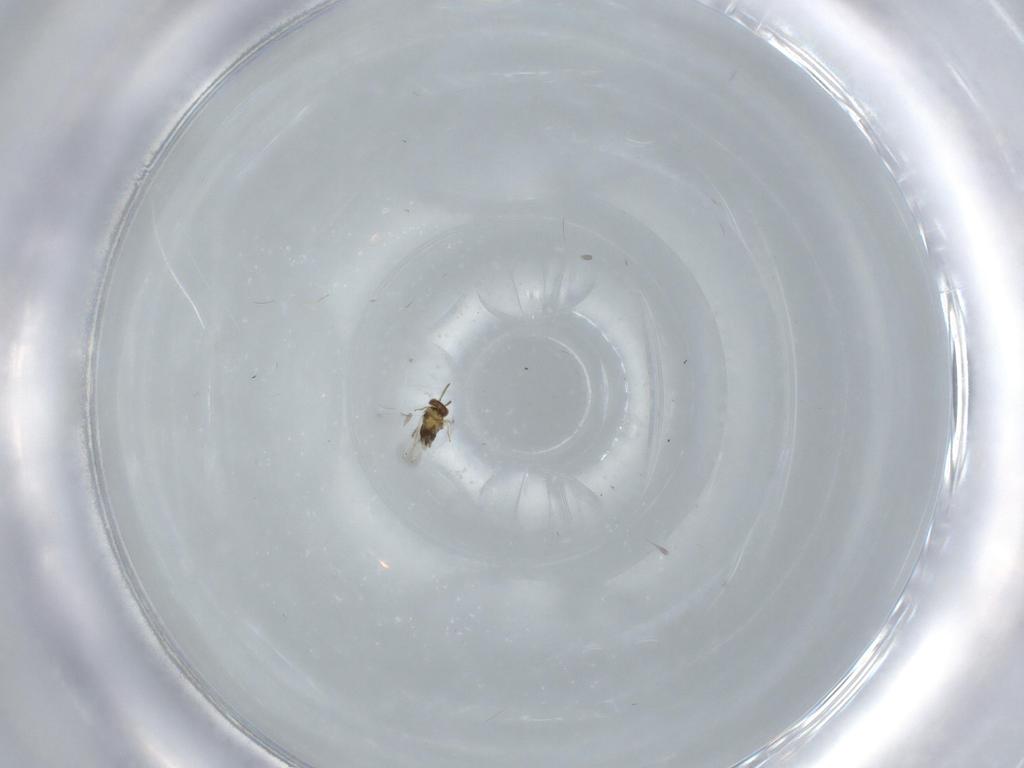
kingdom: Animalia
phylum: Arthropoda
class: Insecta
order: Hymenoptera
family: Aphelinidae
